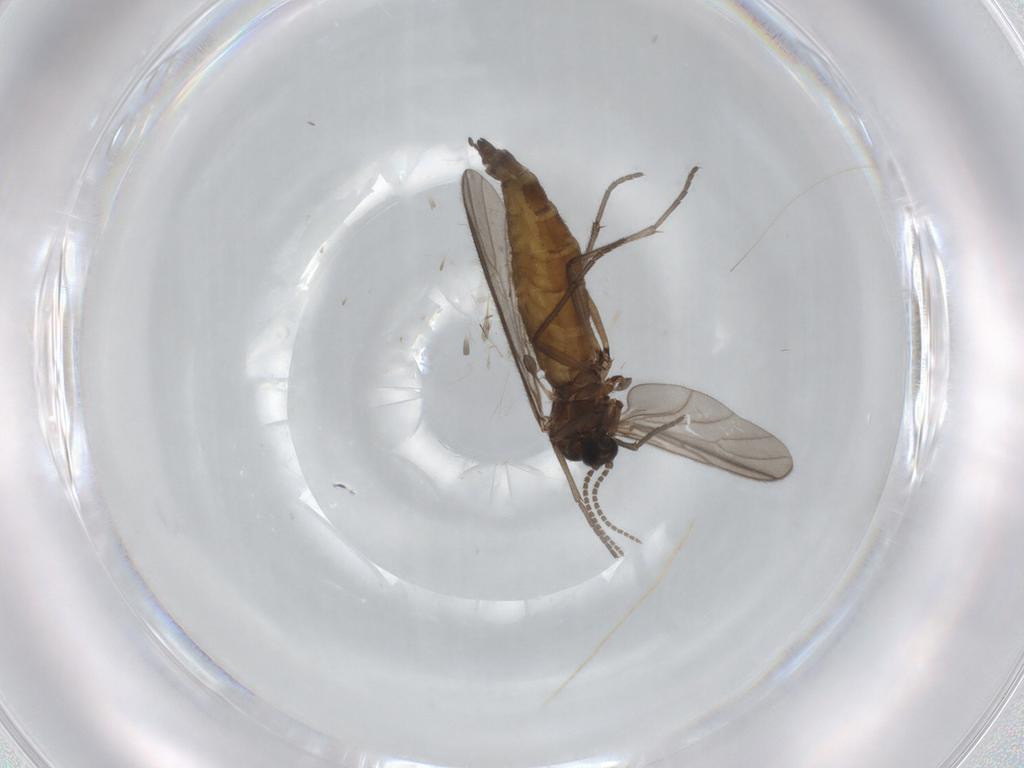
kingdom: Animalia
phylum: Arthropoda
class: Insecta
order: Diptera
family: Sciaridae
